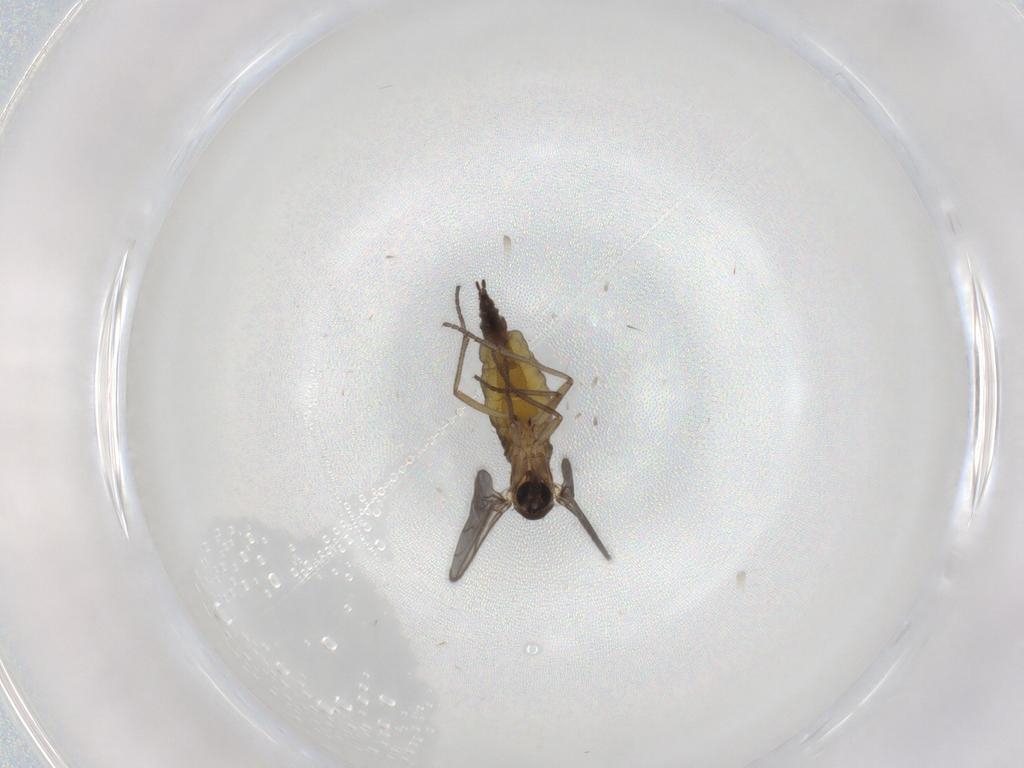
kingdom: Animalia
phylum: Arthropoda
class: Insecta
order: Diptera
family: Sciaridae
